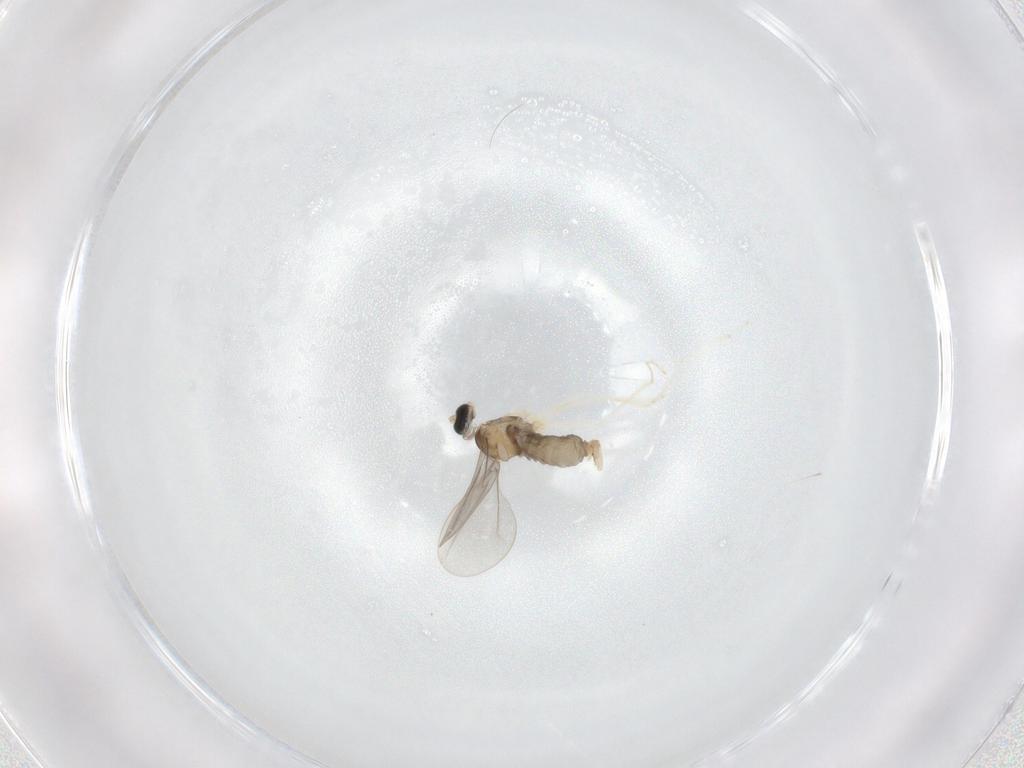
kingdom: Animalia
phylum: Arthropoda
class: Insecta
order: Diptera
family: Cecidomyiidae
